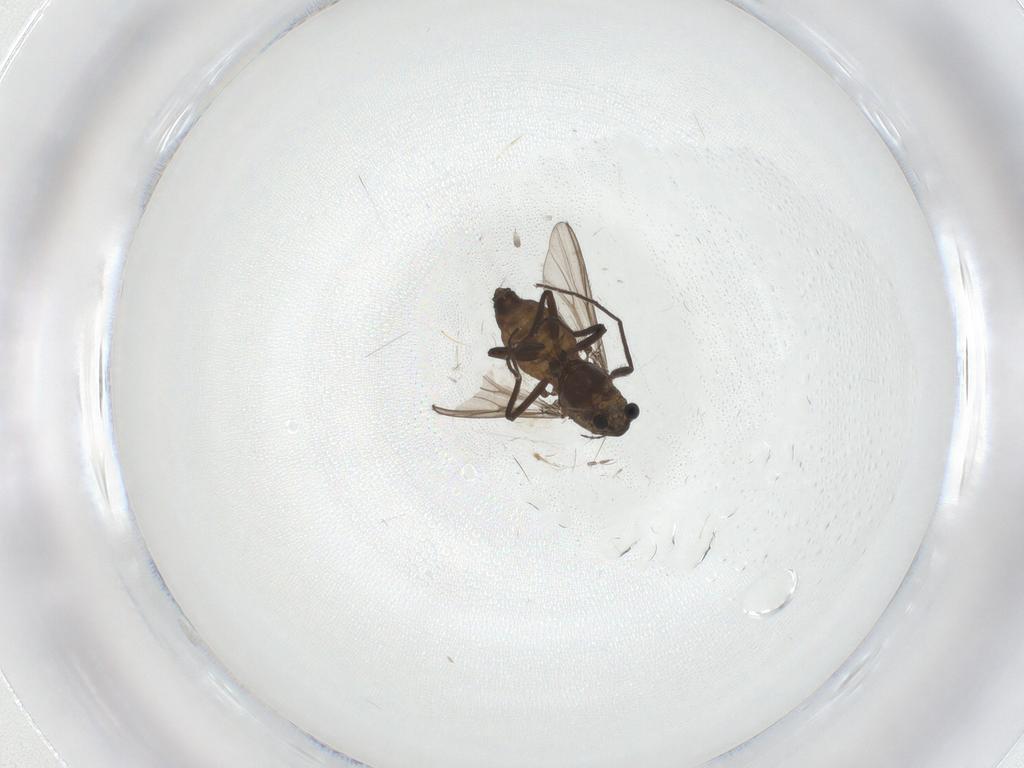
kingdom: Animalia
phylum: Arthropoda
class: Insecta
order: Diptera
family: Chironomidae
